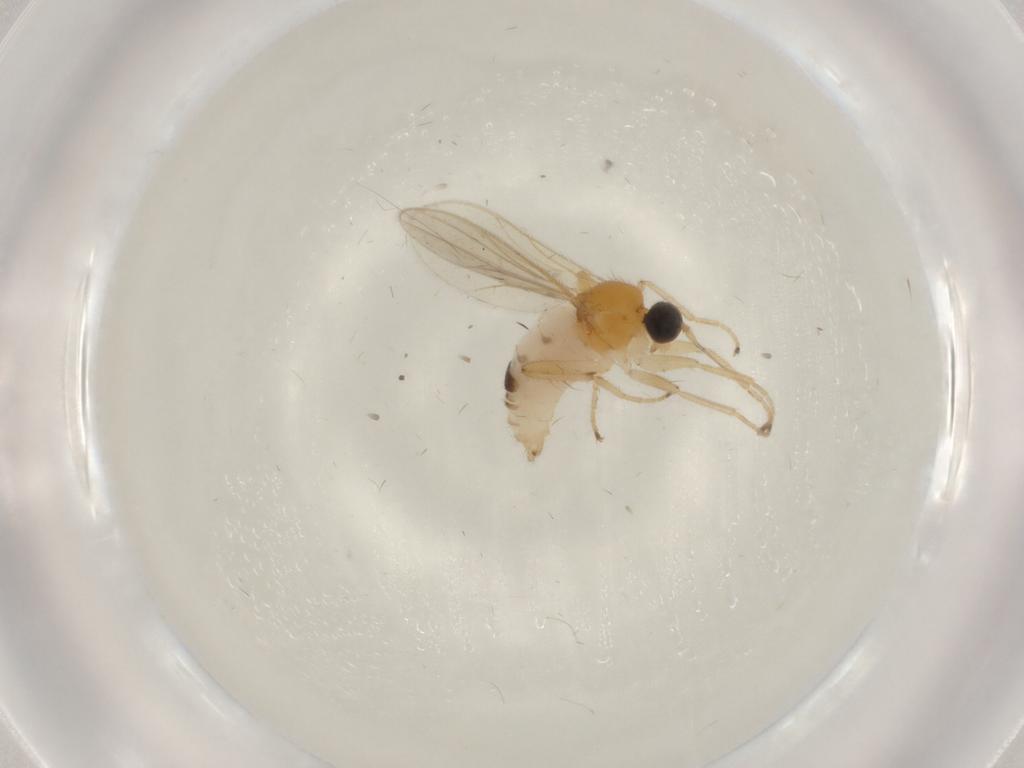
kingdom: Animalia
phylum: Arthropoda
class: Insecta
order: Diptera
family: Hybotidae
